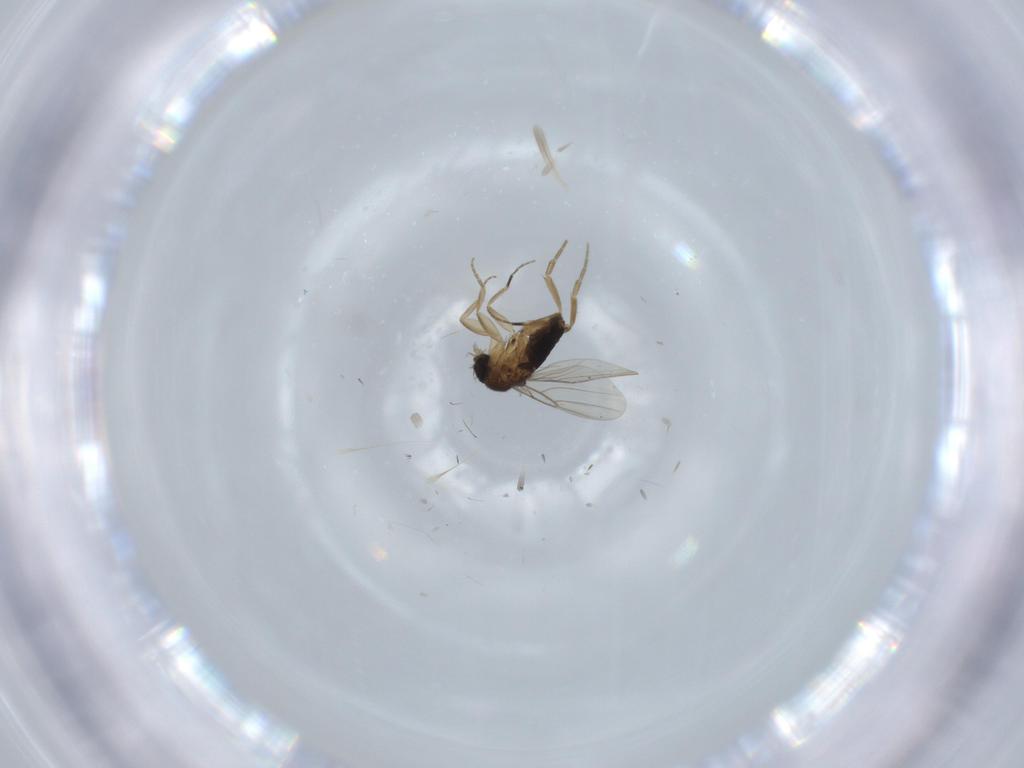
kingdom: Animalia
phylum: Arthropoda
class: Insecta
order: Diptera
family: Phoridae
